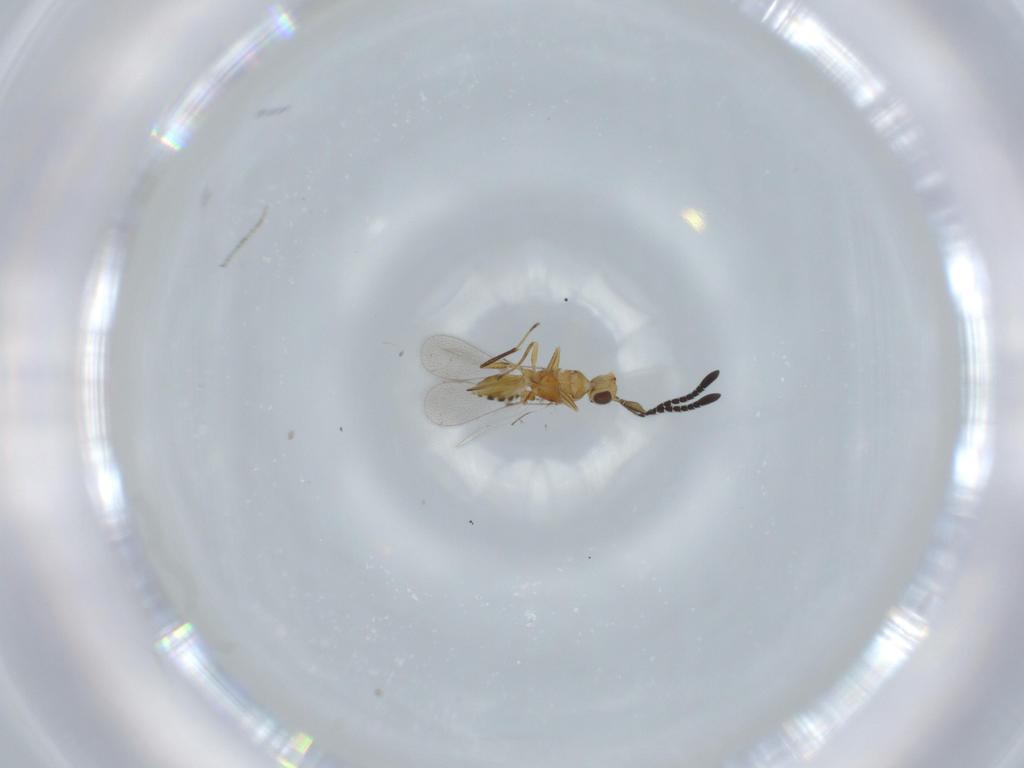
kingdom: Animalia
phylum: Arthropoda
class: Insecta
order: Hymenoptera
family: Mymaridae
